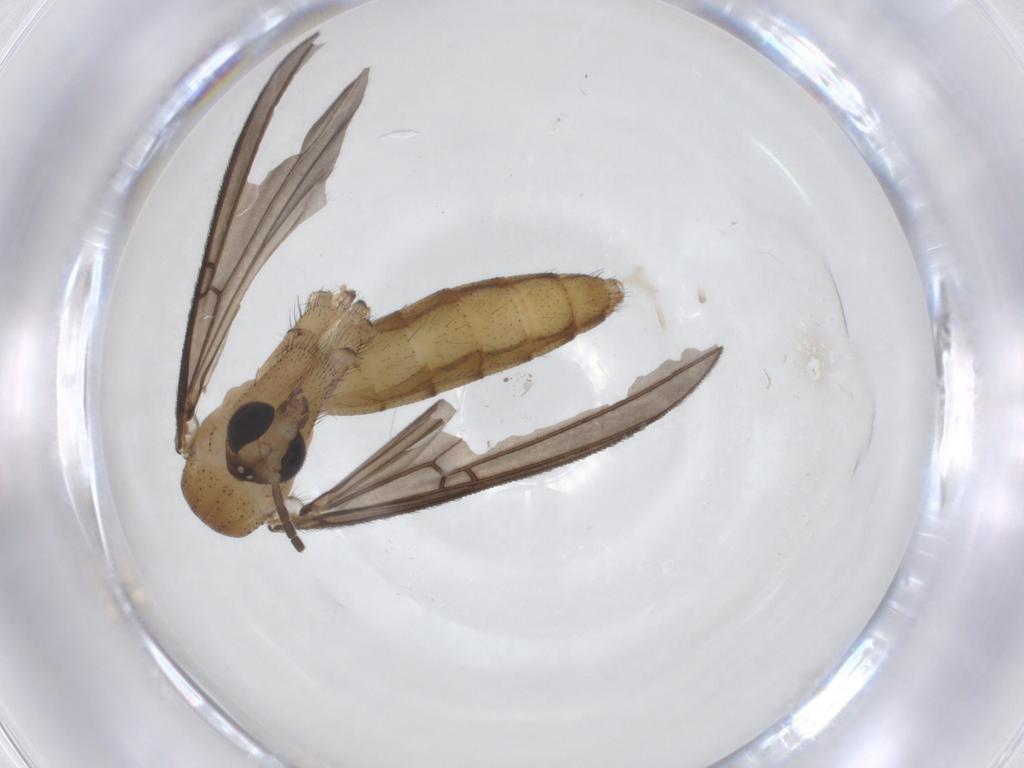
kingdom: Animalia
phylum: Arthropoda
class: Insecta
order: Diptera
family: Mycetophilidae
